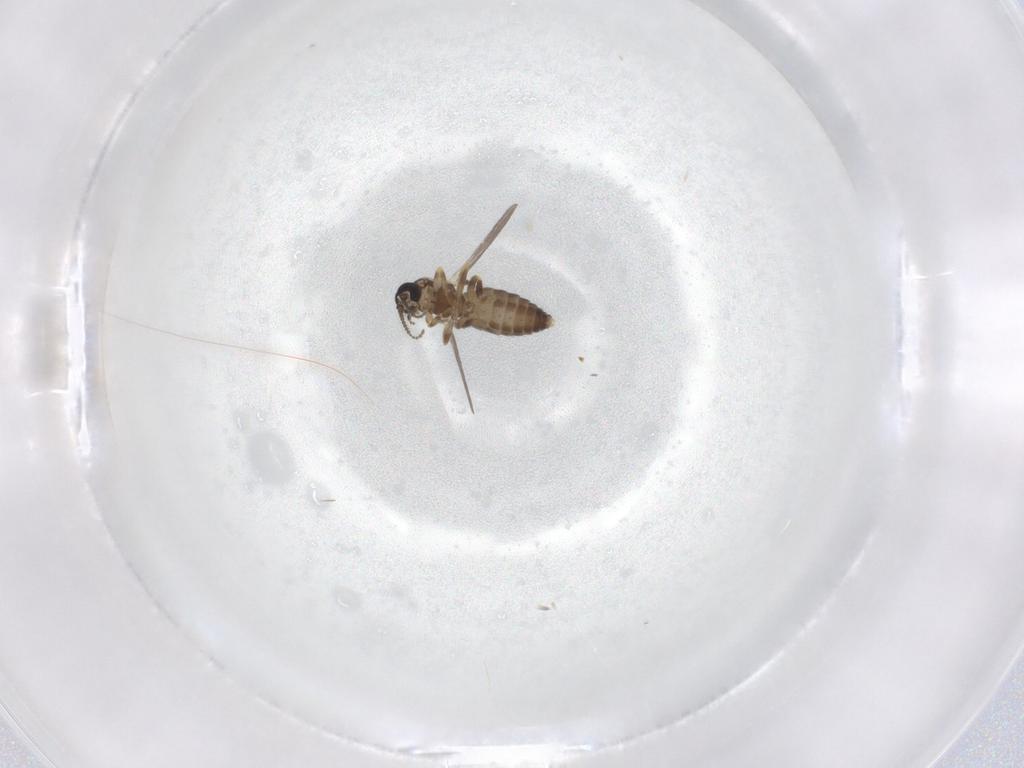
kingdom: Animalia
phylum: Arthropoda
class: Insecta
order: Diptera
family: Ceratopogonidae
